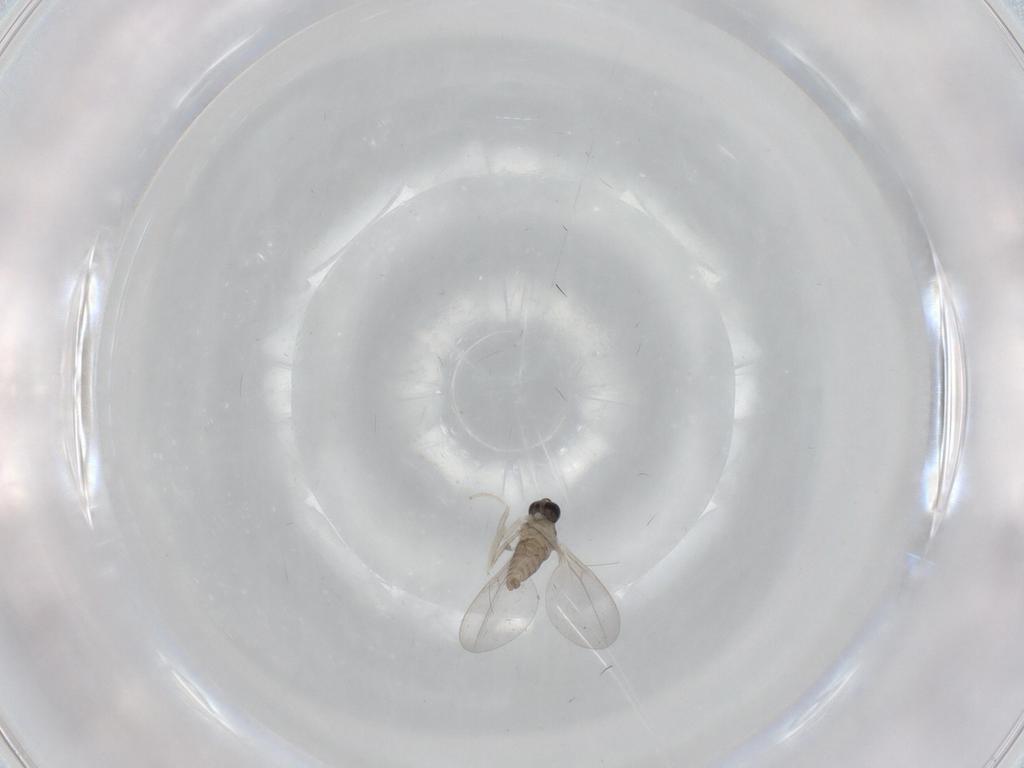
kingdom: Animalia
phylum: Arthropoda
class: Insecta
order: Diptera
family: Cecidomyiidae
